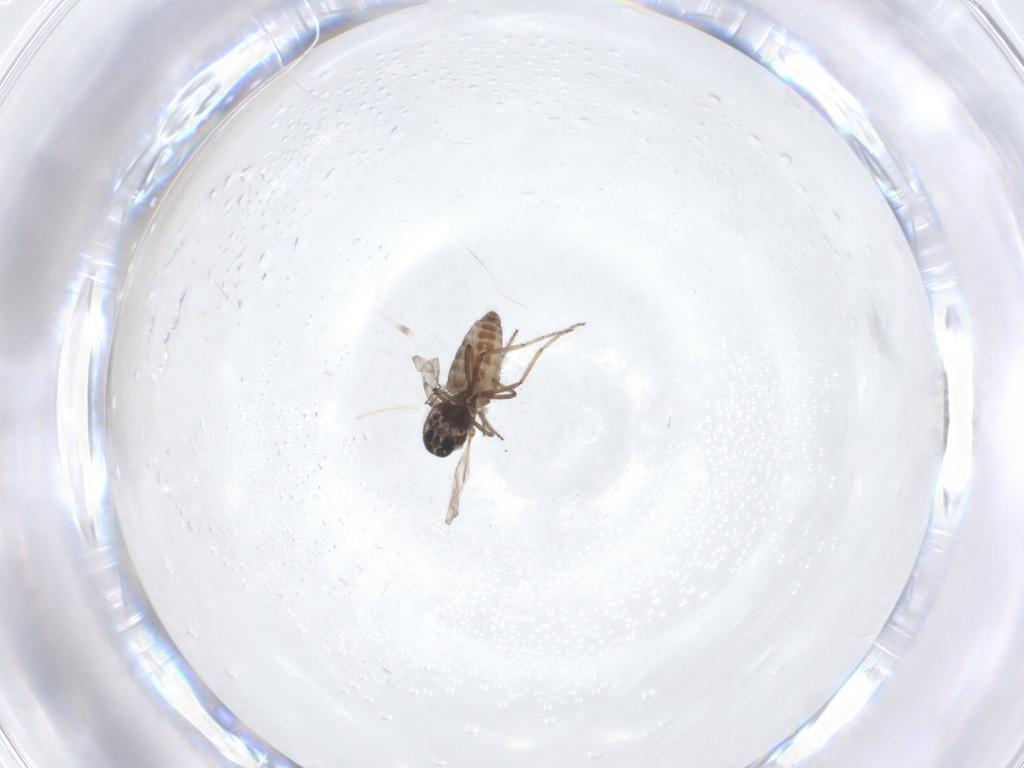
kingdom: Animalia
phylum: Arthropoda
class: Insecta
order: Diptera
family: Ceratopogonidae
